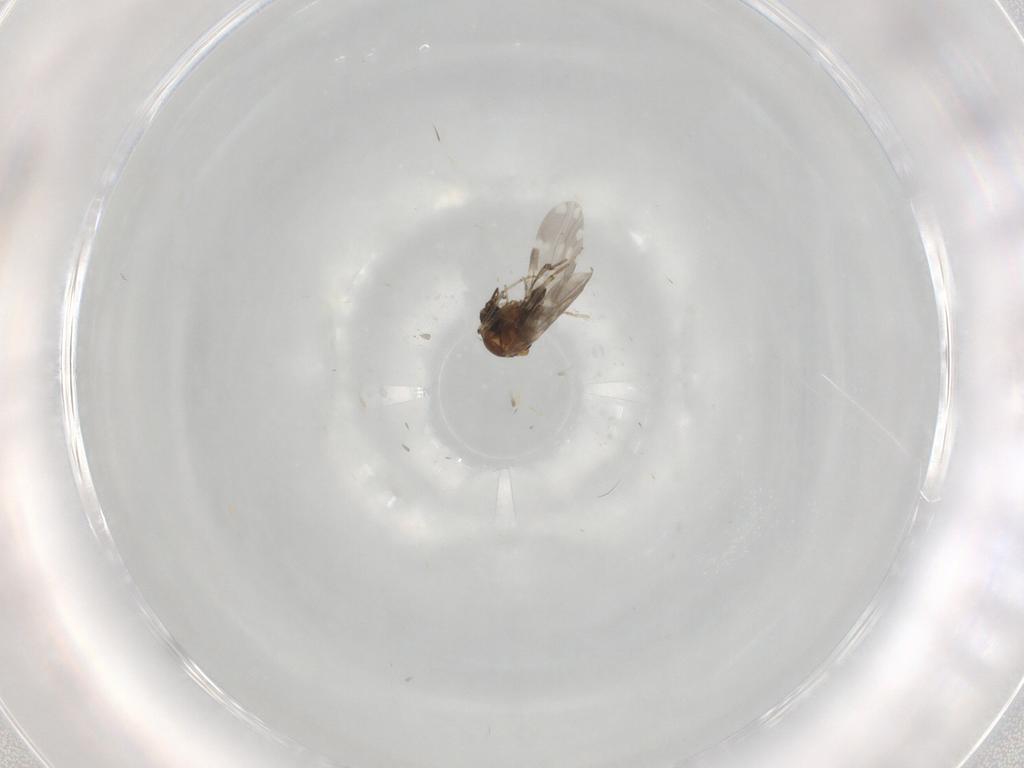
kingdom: Animalia
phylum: Arthropoda
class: Insecta
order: Diptera
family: Ceratopogonidae
